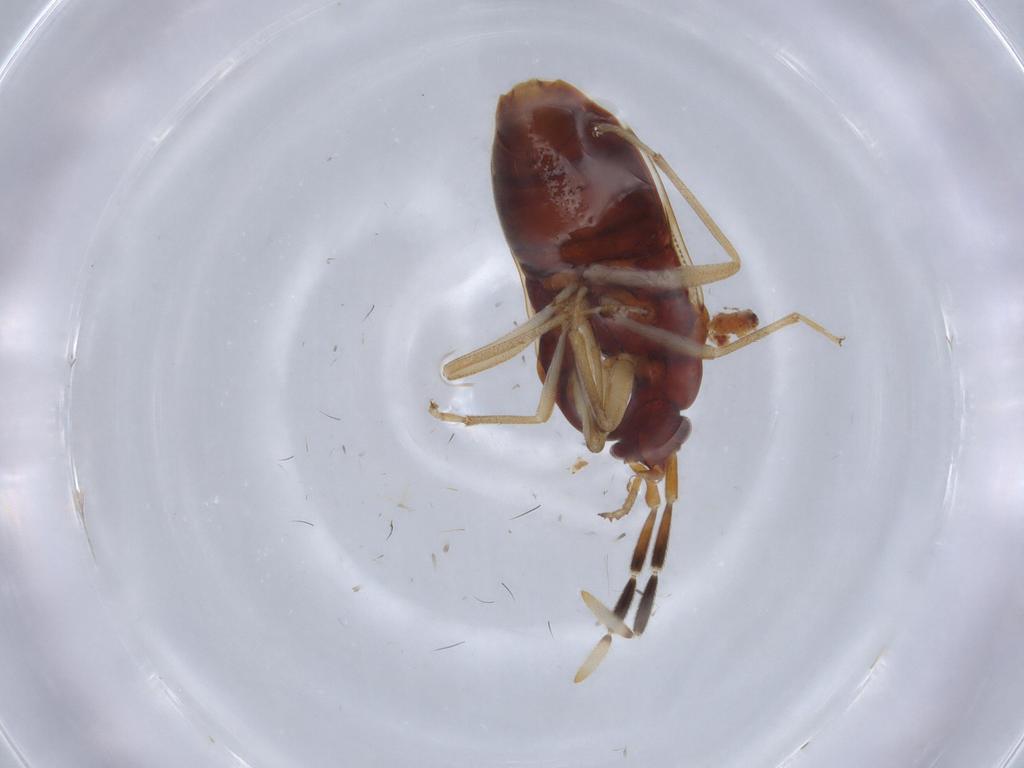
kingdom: Animalia
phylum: Arthropoda
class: Insecta
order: Hemiptera
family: Rhyparochromidae
